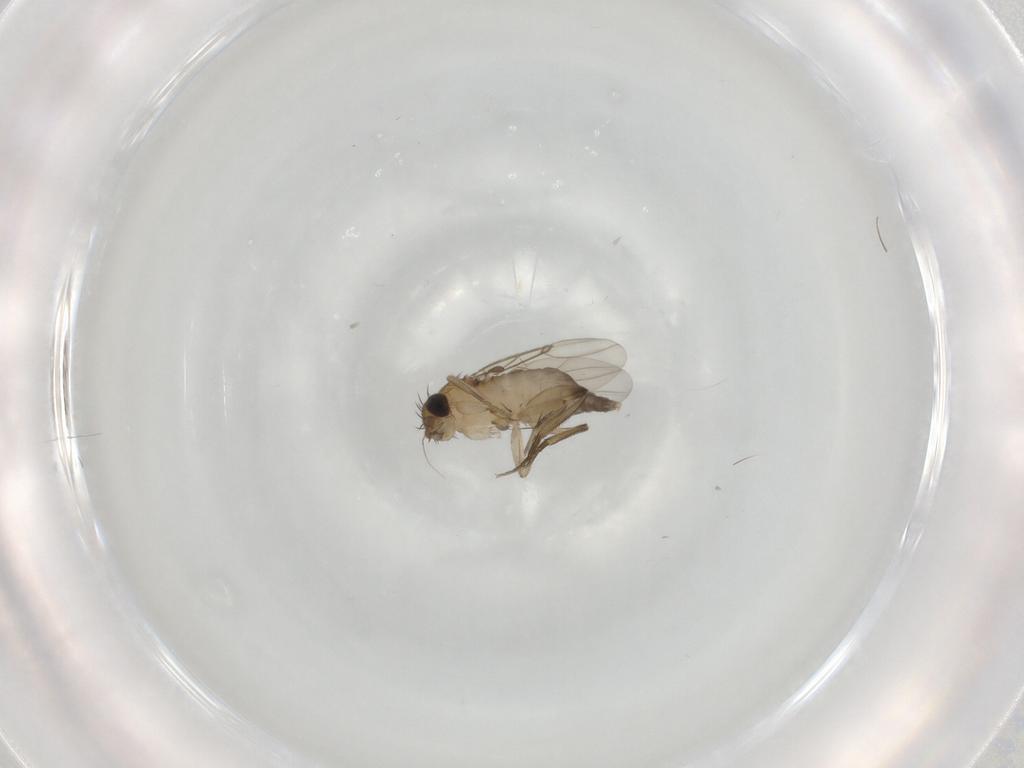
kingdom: Animalia
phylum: Arthropoda
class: Insecta
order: Diptera
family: Phoridae
